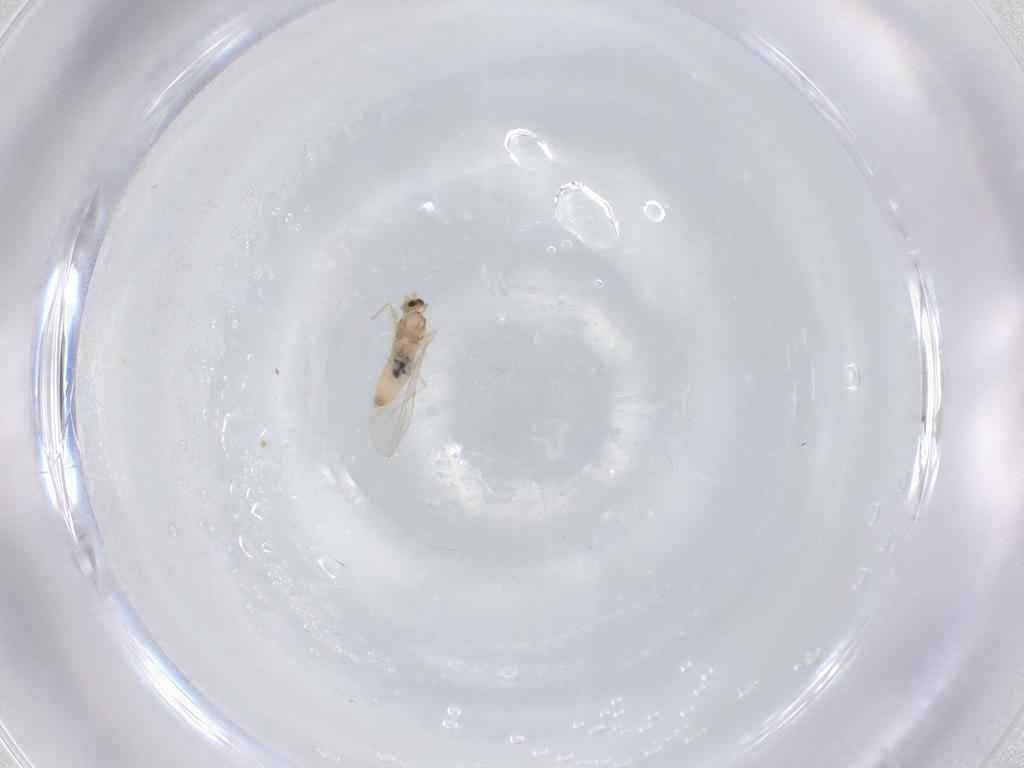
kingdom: Animalia
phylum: Arthropoda
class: Insecta
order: Diptera
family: Cecidomyiidae
